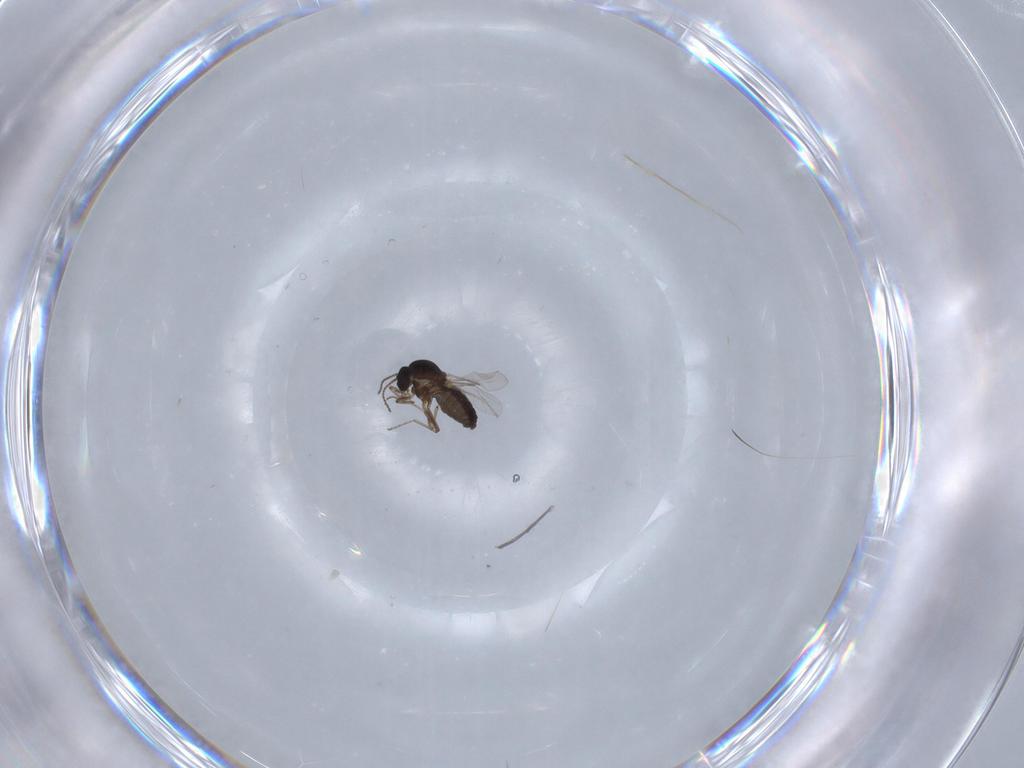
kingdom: Animalia
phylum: Arthropoda
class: Insecta
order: Diptera
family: Ceratopogonidae
